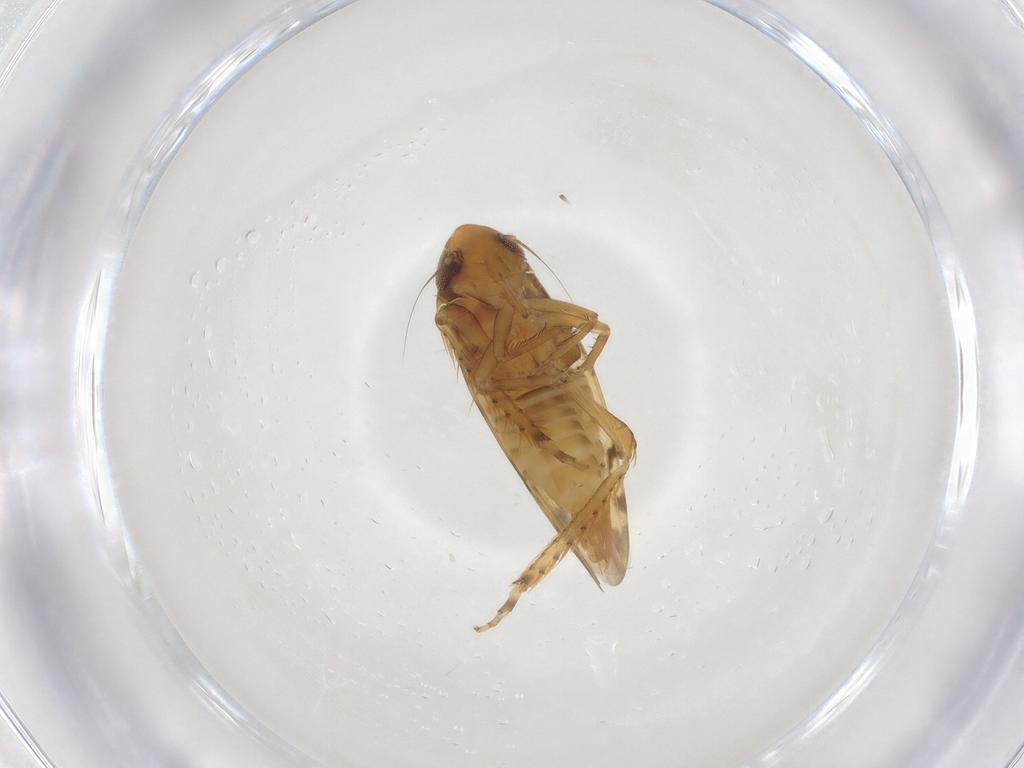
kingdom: Animalia
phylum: Arthropoda
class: Insecta
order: Hemiptera
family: Cicadellidae
